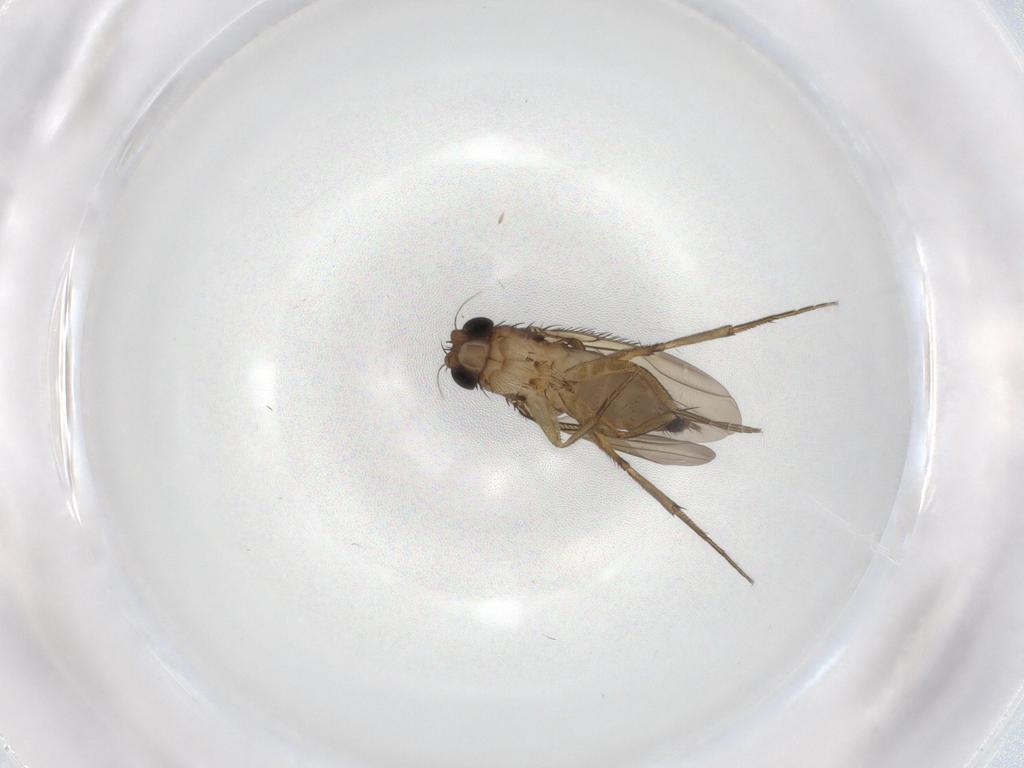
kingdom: Animalia
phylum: Arthropoda
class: Insecta
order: Diptera
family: Phoridae
